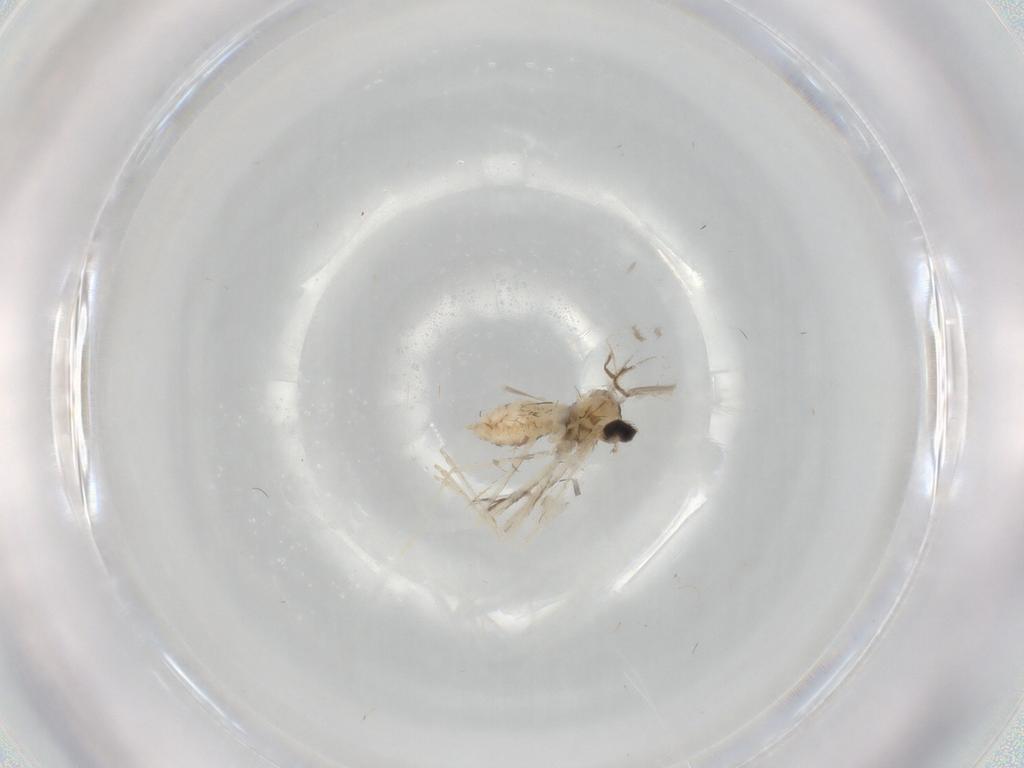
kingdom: Animalia
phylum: Arthropoda
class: Insecta
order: Diptera
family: Cecidomyiidae
